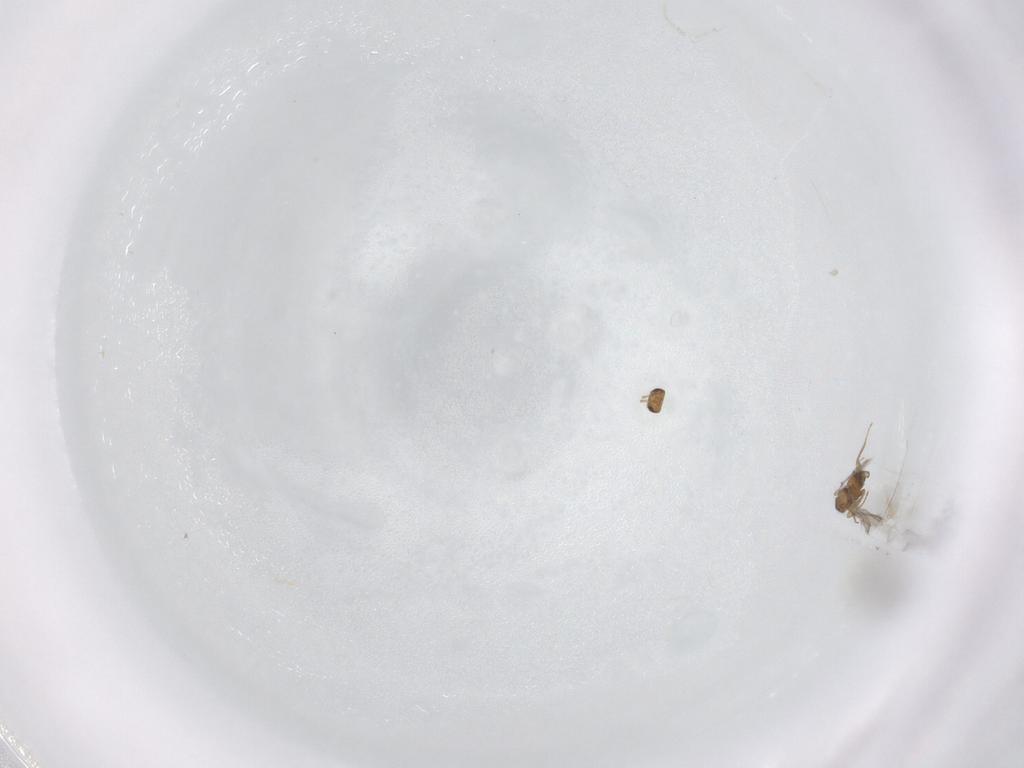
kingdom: Animalia
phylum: Arthropoda
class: Insecta
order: Hymenoptera
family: Mymaridae
